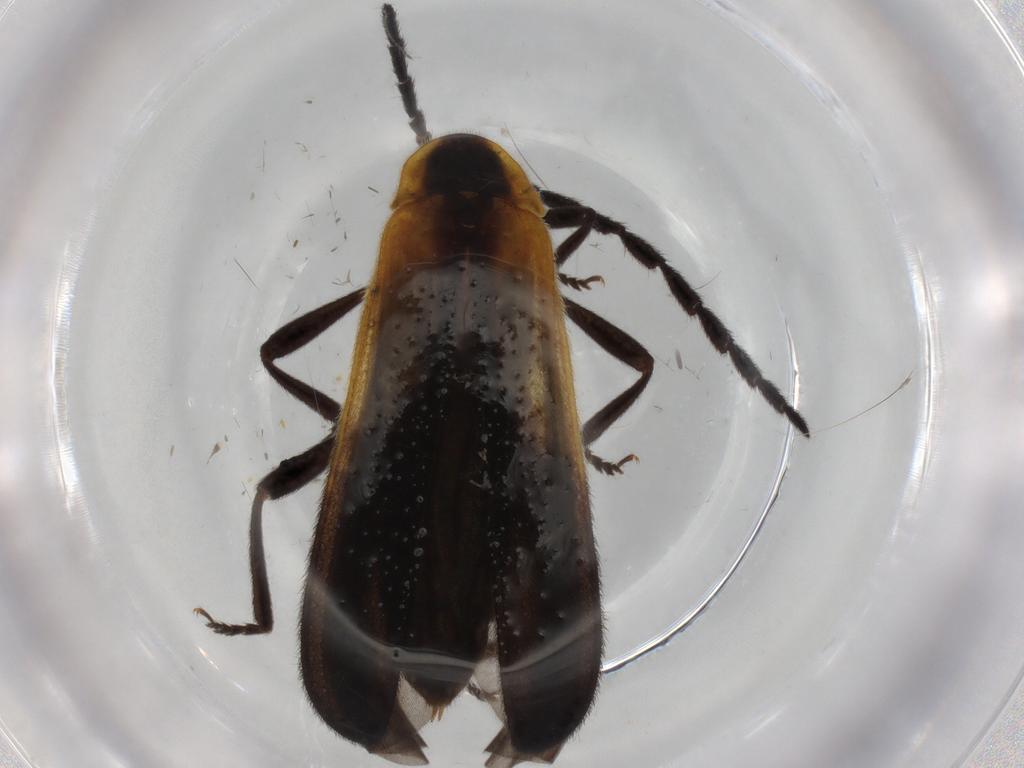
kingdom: Animalia
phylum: Arthropoda
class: Insecta
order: Coleoptera
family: Lycidae
